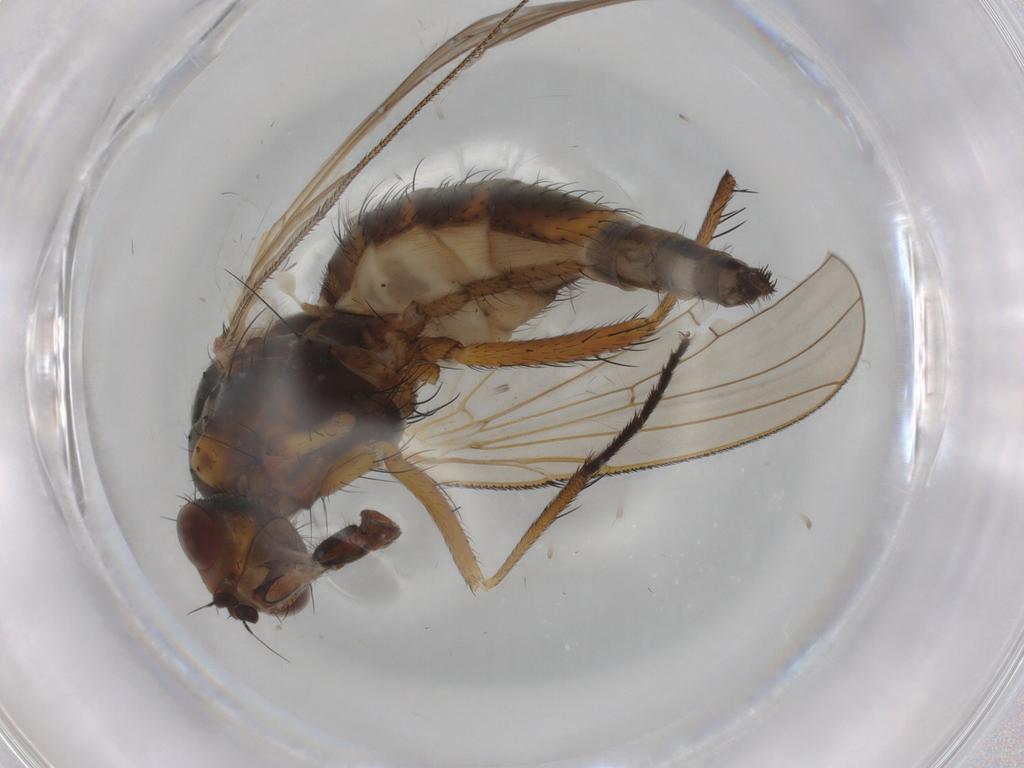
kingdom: Animalia
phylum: Arthropoda
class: Insecta
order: Diptera
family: Anthomyiidae
